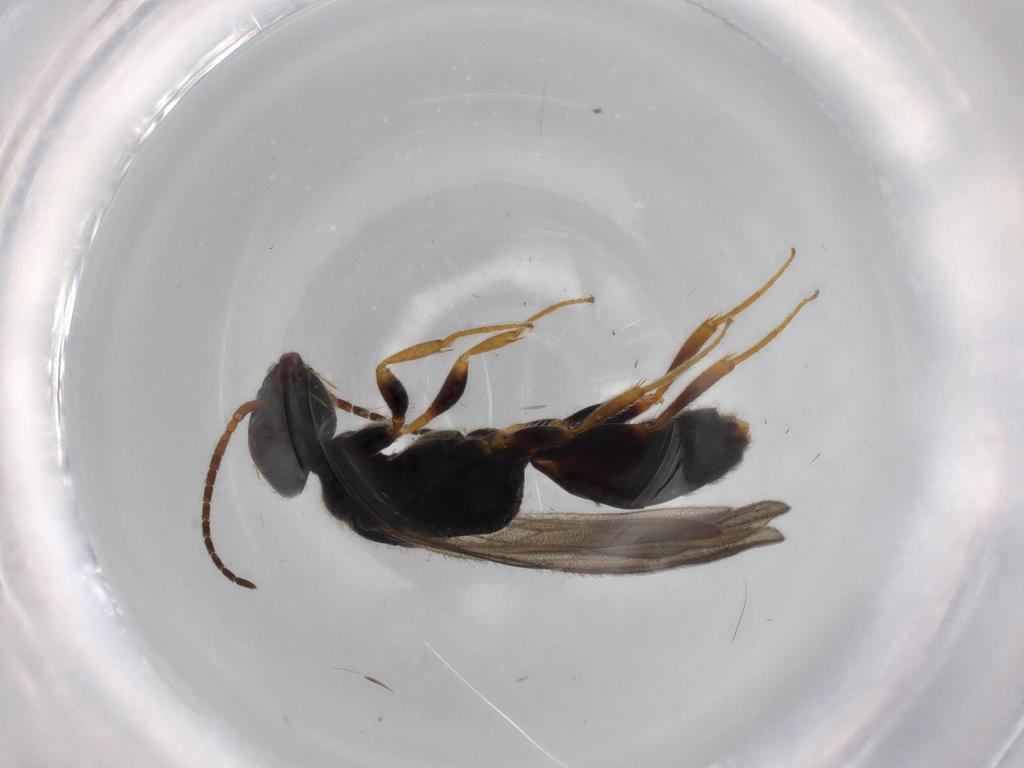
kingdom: Animalia
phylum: Arthropoda
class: Insecta
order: Hymenoptera
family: Bethylidae
